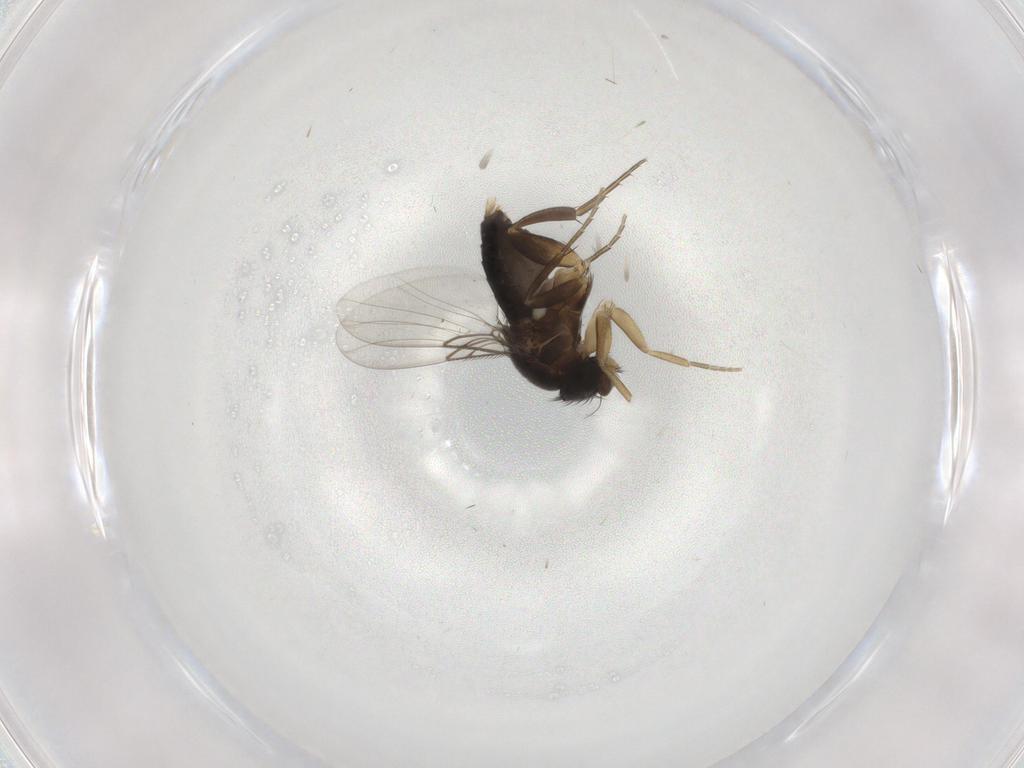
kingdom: Animalia
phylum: Arthropoda
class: Insecta
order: Diptera
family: Phoridae
